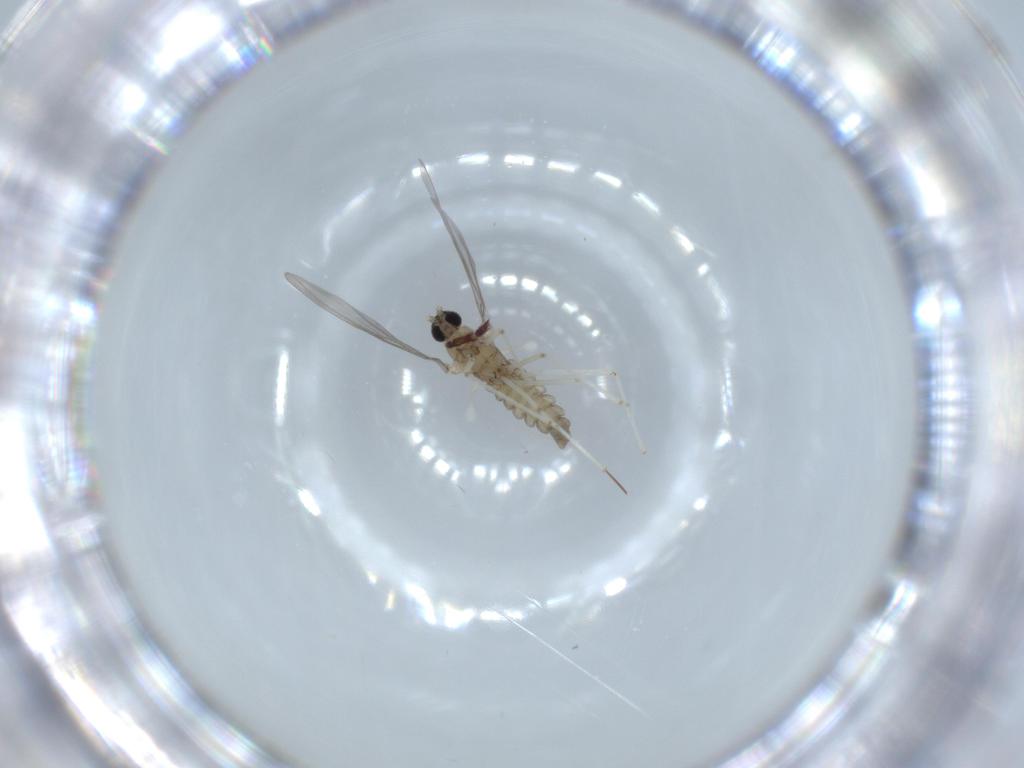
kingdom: Animalia
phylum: Arthropoda
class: Insecta
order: Diptera
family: Cecidomyiidae
